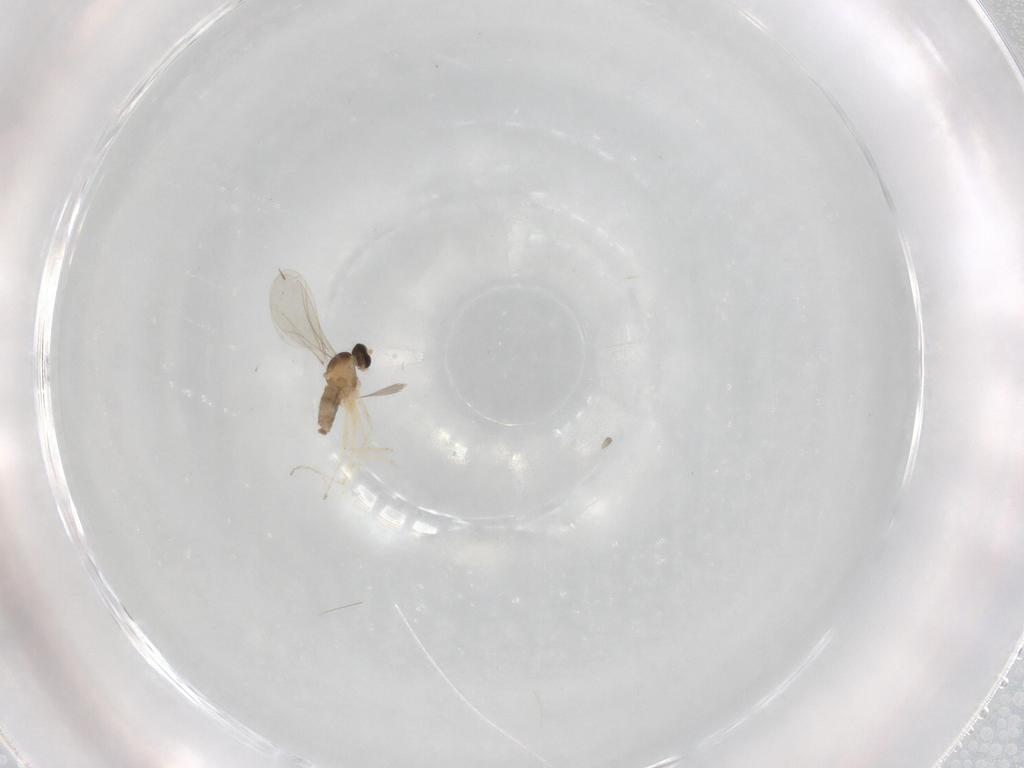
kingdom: Animalia
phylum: Arthropoda
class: Insecta
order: Diptera
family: Cecidomyiidae
